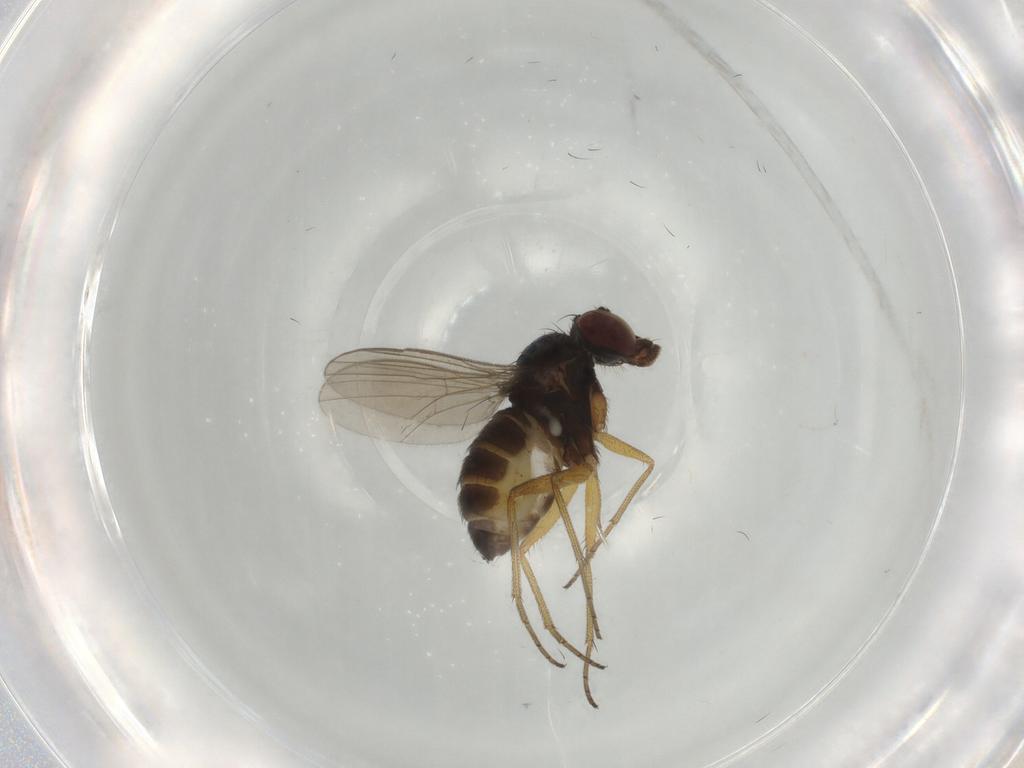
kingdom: Animalia
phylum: Arthropoda
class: Insecta
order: Diptera
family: Dolichopodidae
